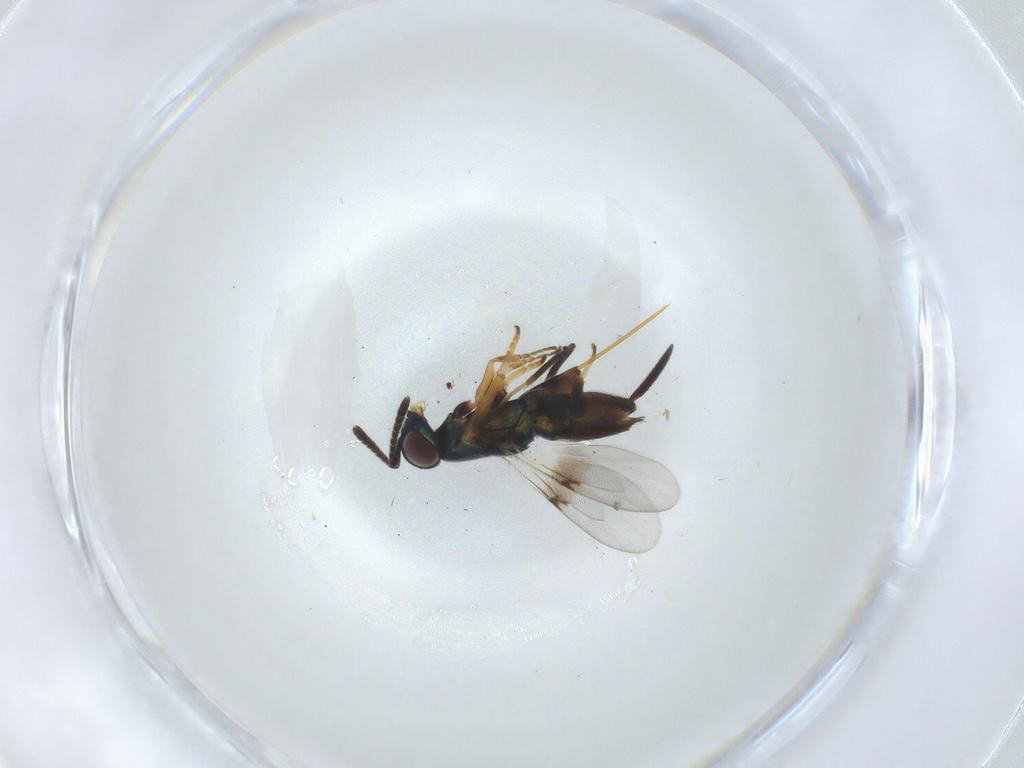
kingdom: Animalia
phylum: Arthropoda
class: Insecta
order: Hymenoptera
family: Encyrtidae
